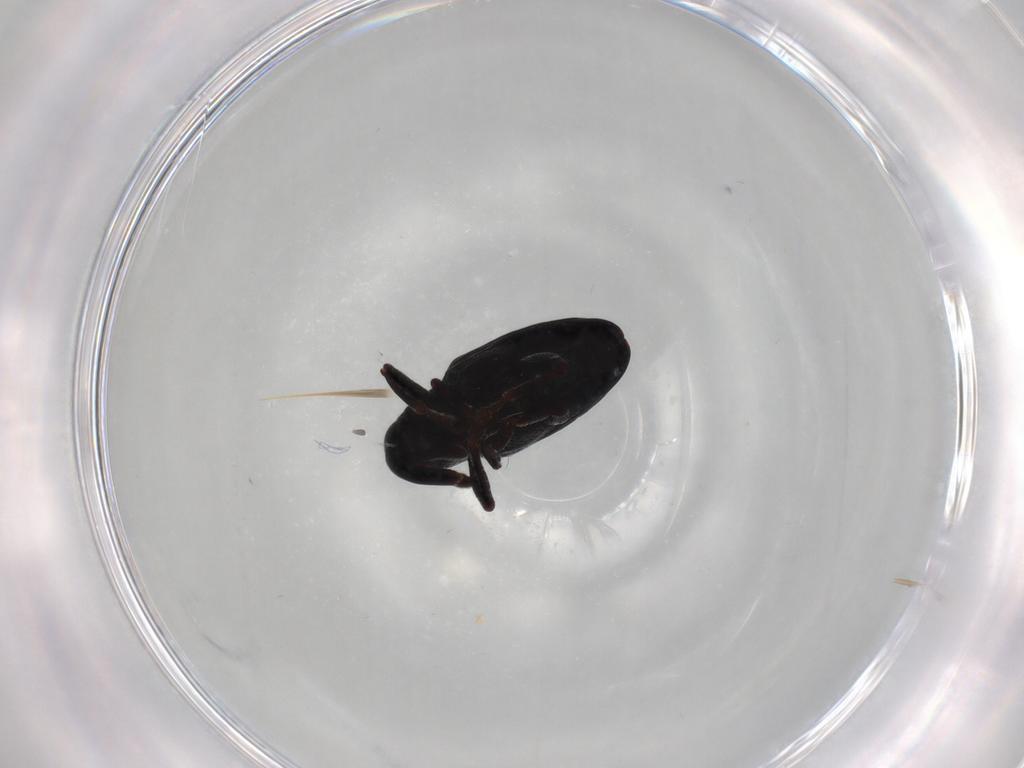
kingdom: Animalia
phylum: Arthropoda
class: Insecta
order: Coleoptera
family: Curculionidae
